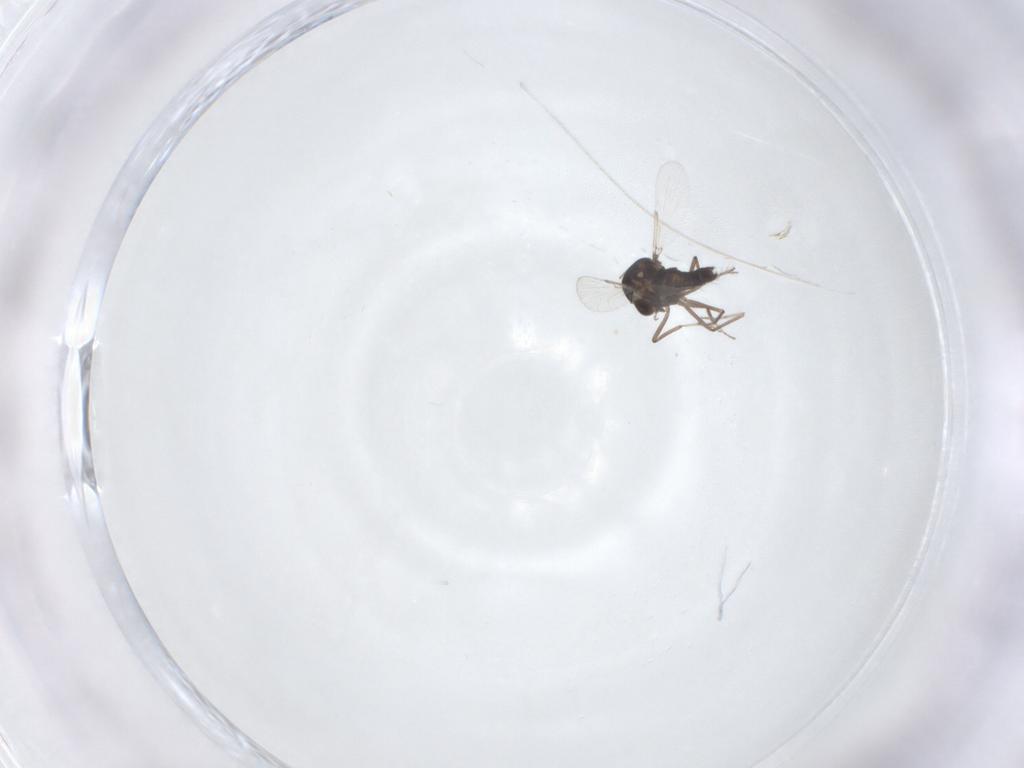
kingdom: Animalia
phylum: Arthropoda
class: Insecta
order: Diptera
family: Ceratopogonidae
